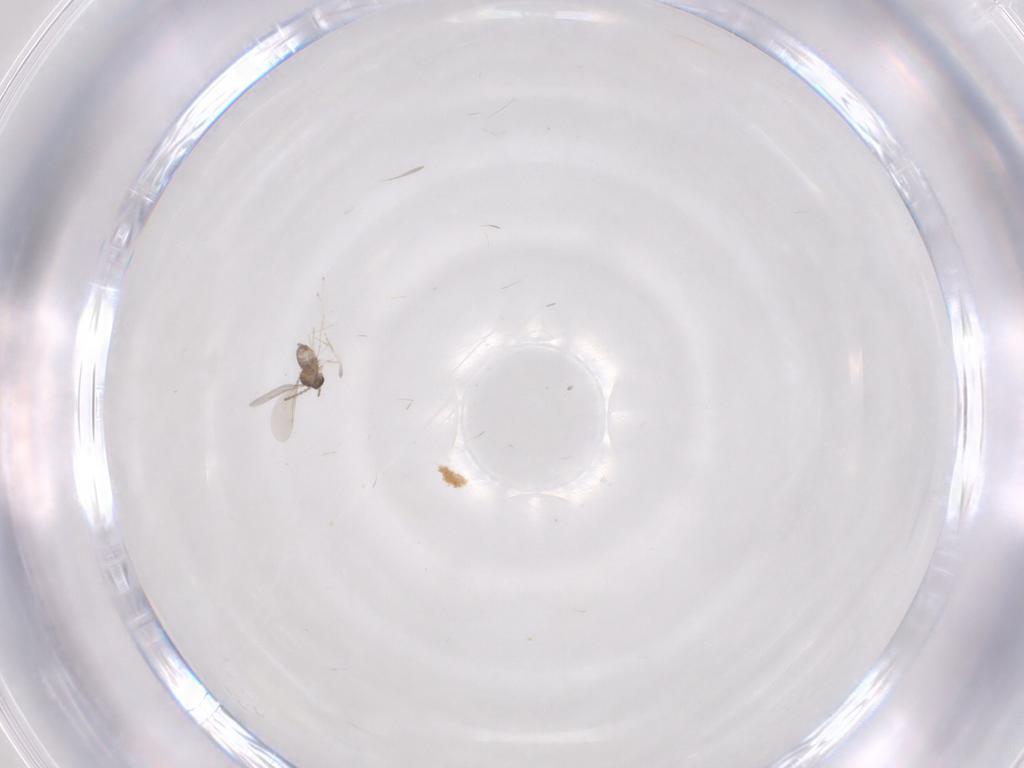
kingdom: Animalia
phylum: Arthropoda
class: Insecta
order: Diptera
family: Cecidomyiidae
